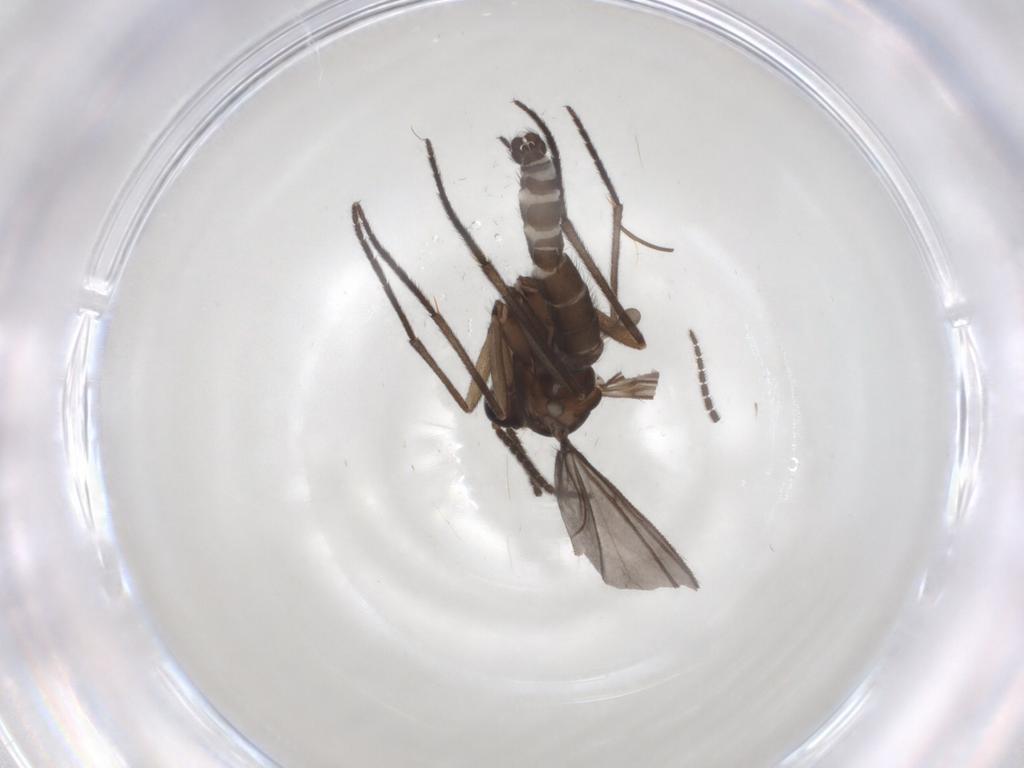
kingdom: Animalia
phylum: Arthropoda
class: Insecta
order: Diptera
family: Sciaridae
